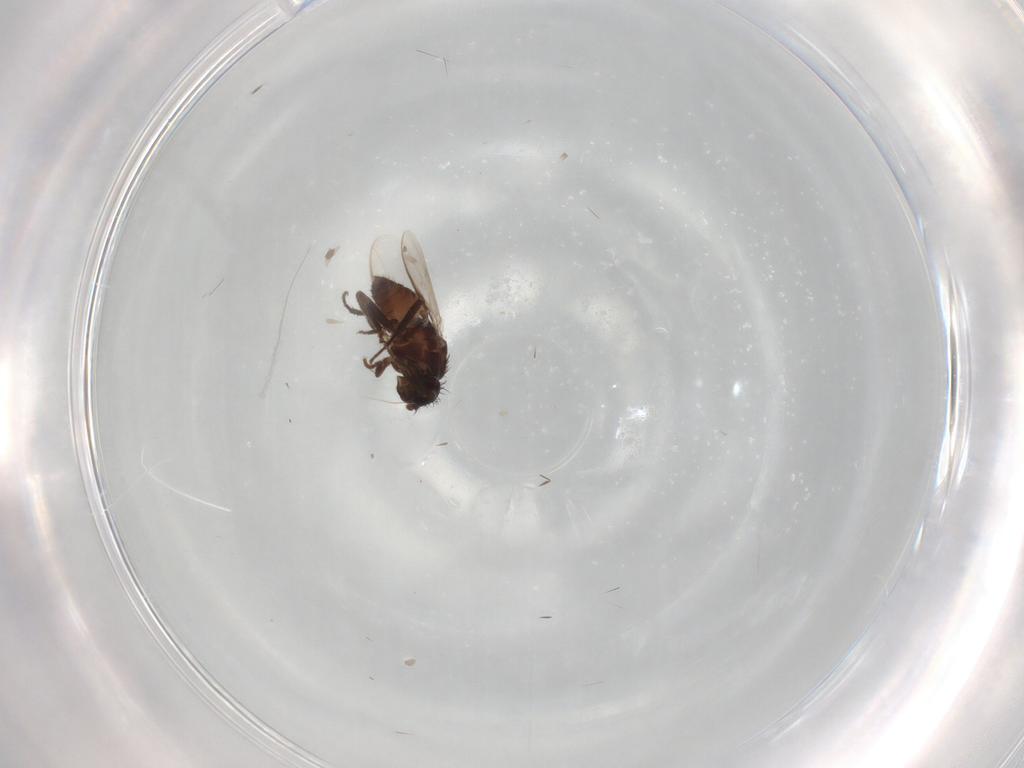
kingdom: Animalia
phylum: Arthropoda
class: Insecta
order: Diptera
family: Sphaeroceridae
